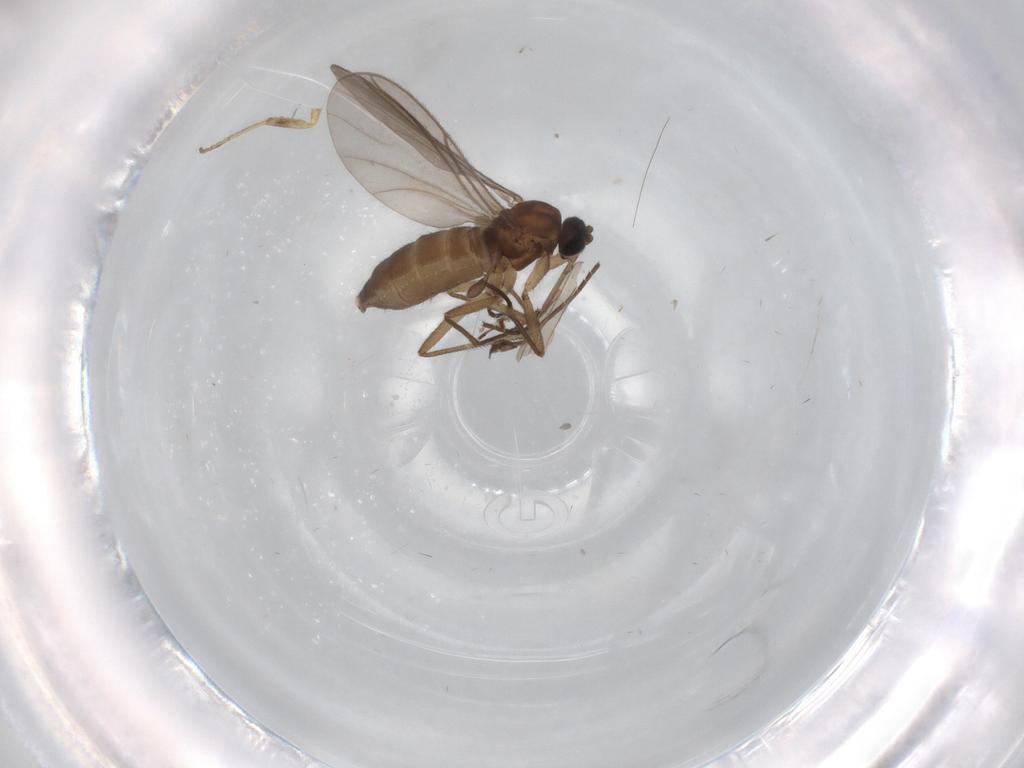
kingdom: Animalia
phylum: Arthropoda
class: Insecta
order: Diptera
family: Sciaridae
